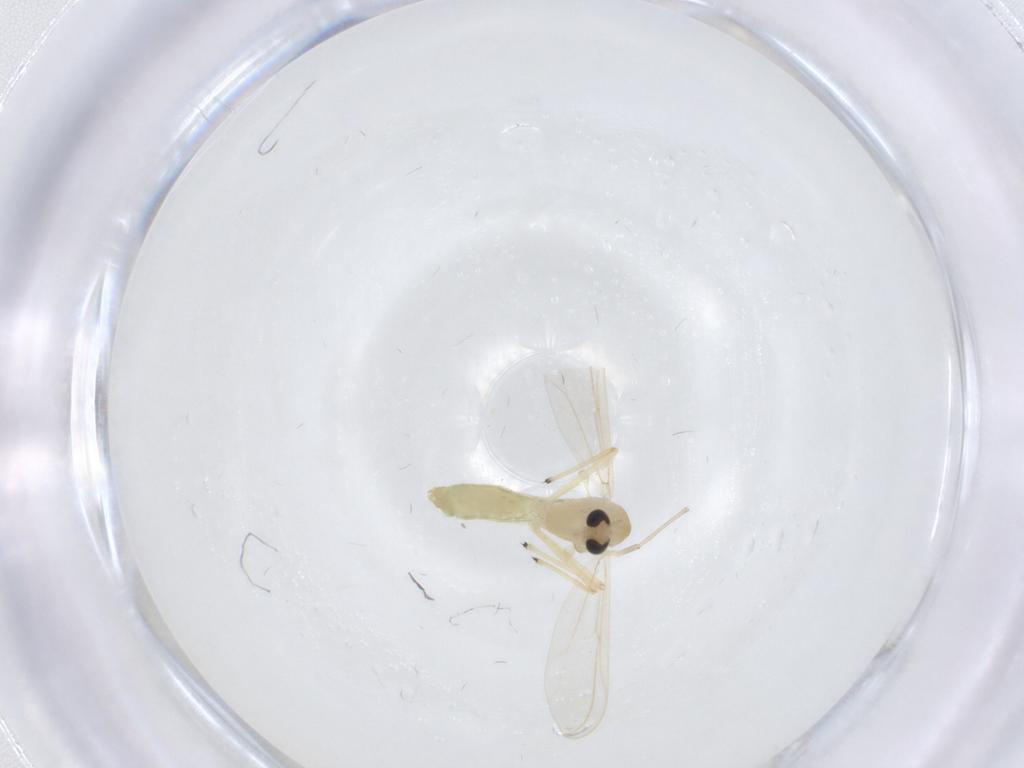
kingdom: Animalia
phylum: Arthropoda
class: Insecta
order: Diptera
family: Chironomidae
